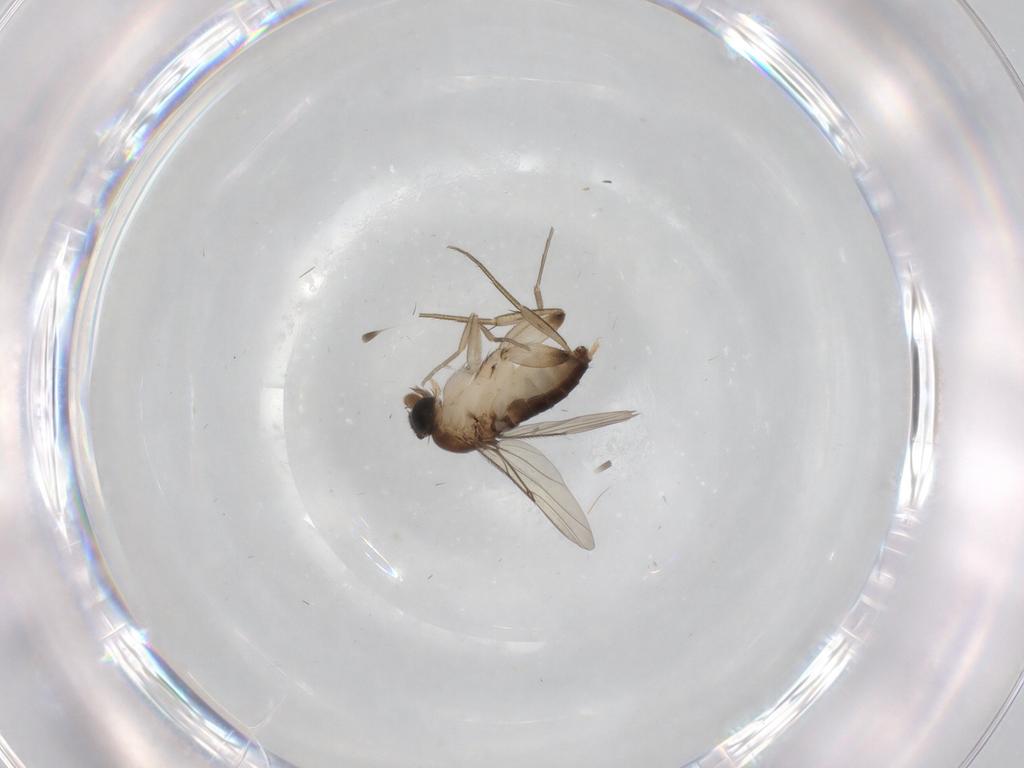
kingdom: Animalia
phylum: Arthropoda
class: Insecta
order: Diptera
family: Phoridae
